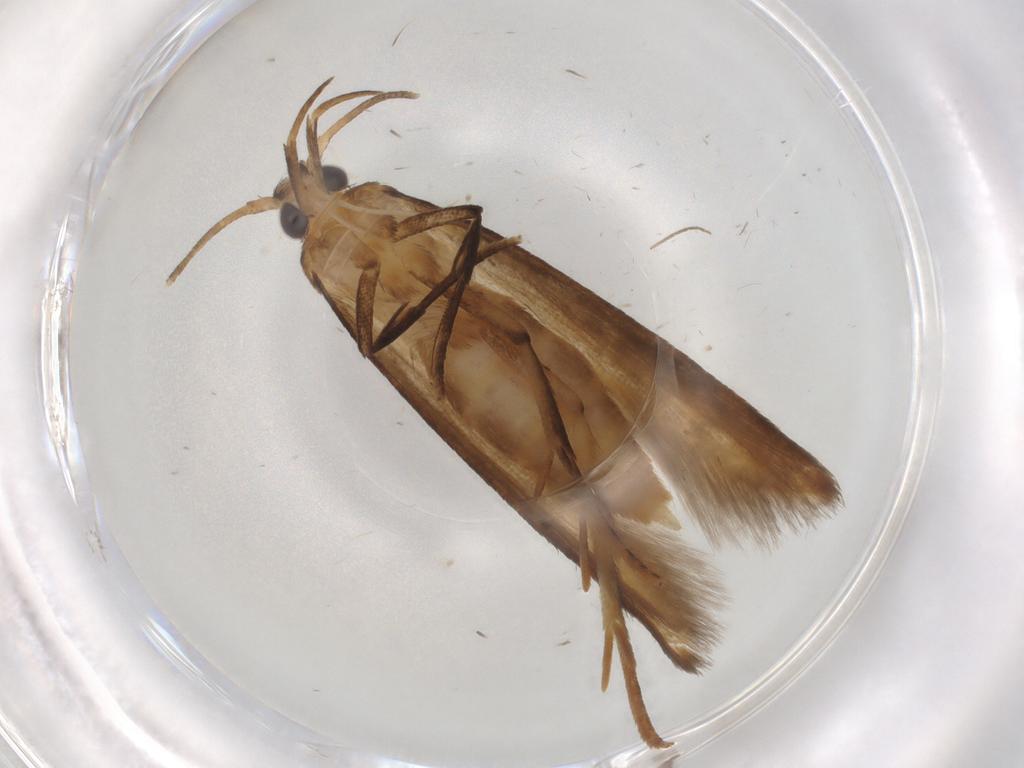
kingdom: Animalia
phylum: Arthropoda
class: Insecta
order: Lepidoptera
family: Nolidae
